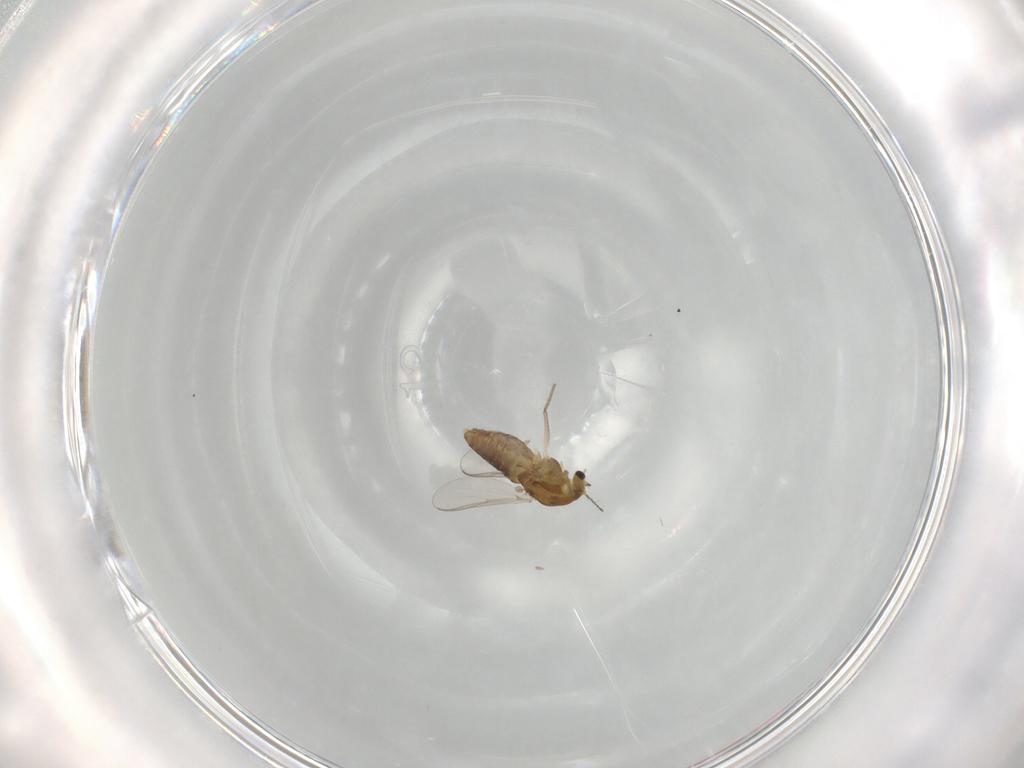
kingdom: Animalia
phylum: Arthropoda
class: Insecta
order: Diptera
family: Chironomidae
